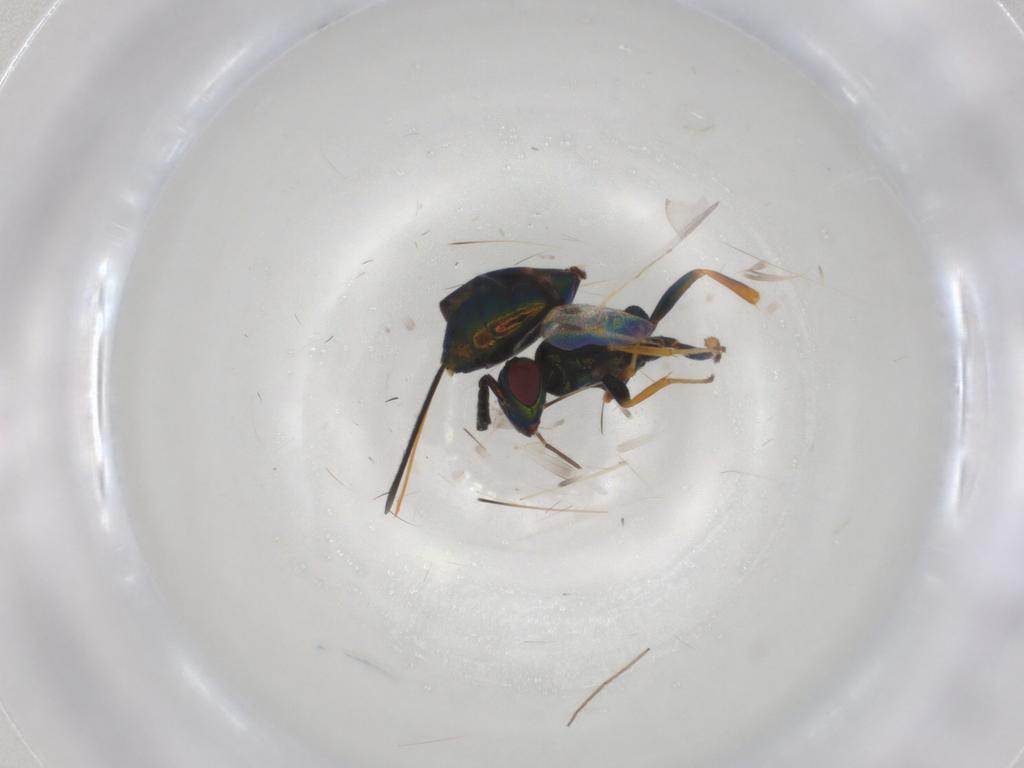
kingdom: Animalia
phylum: Arthropoda
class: Insecta
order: Hymenoptera
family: Torymidae
